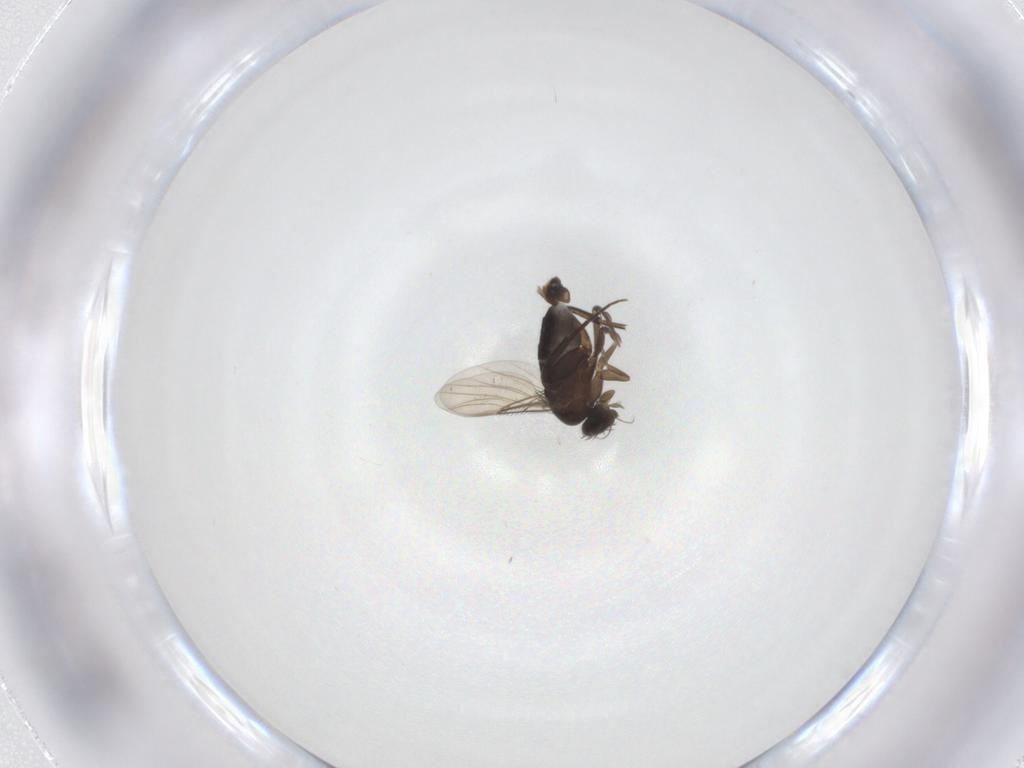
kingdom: Animalia
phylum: Arthropoda
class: Insecta
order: Diptera
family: Phoridae
